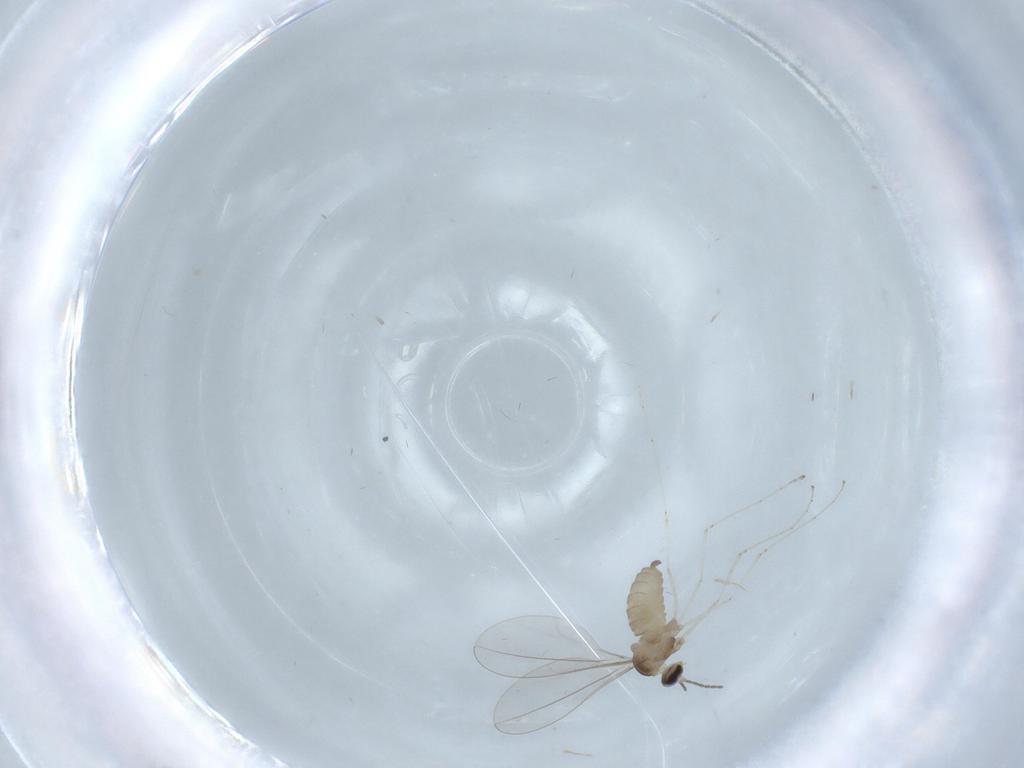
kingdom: Animalia
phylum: Arthropoda
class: Insecta
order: Diptera
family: Cecidomyiidae
